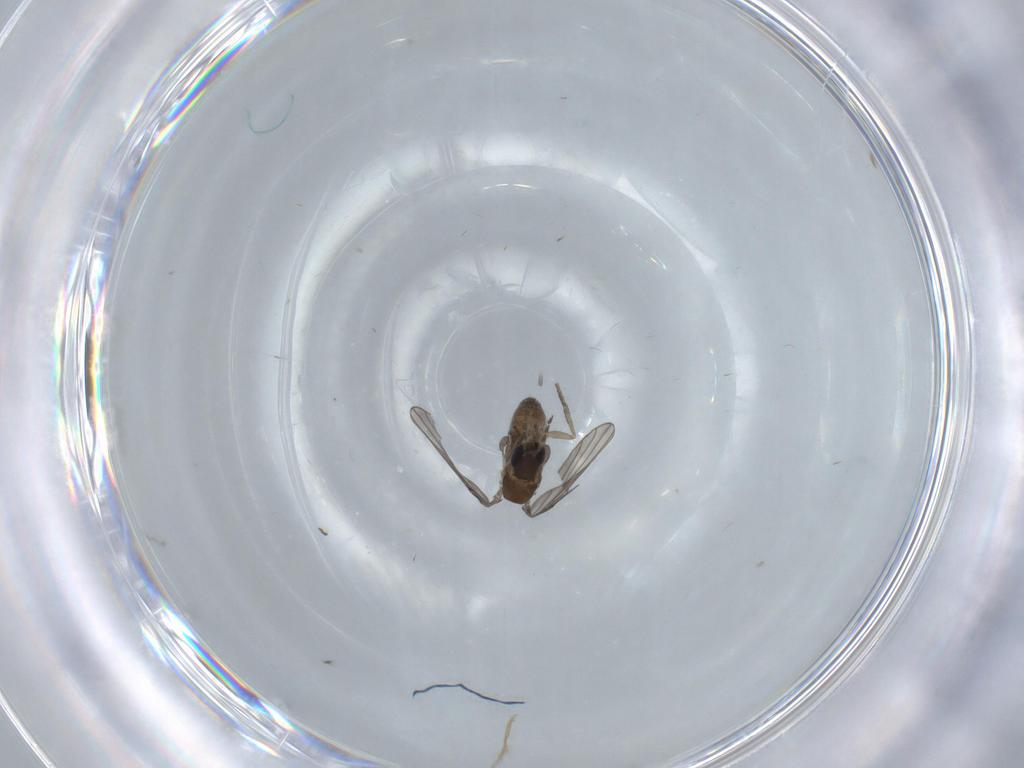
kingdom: Animalia
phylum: Arthropoda
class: Insecta
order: Diptera
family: Psychodidae
